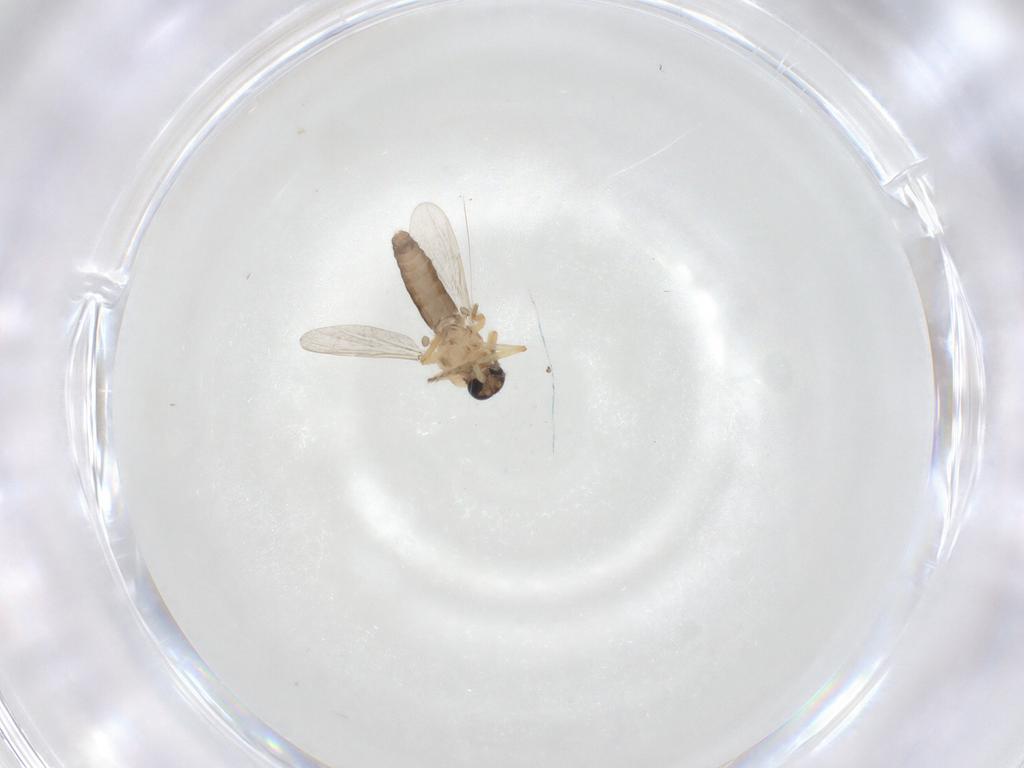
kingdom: Animalia
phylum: Arthropoda
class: Insecta
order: Diptera
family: Ceratopogonidae
